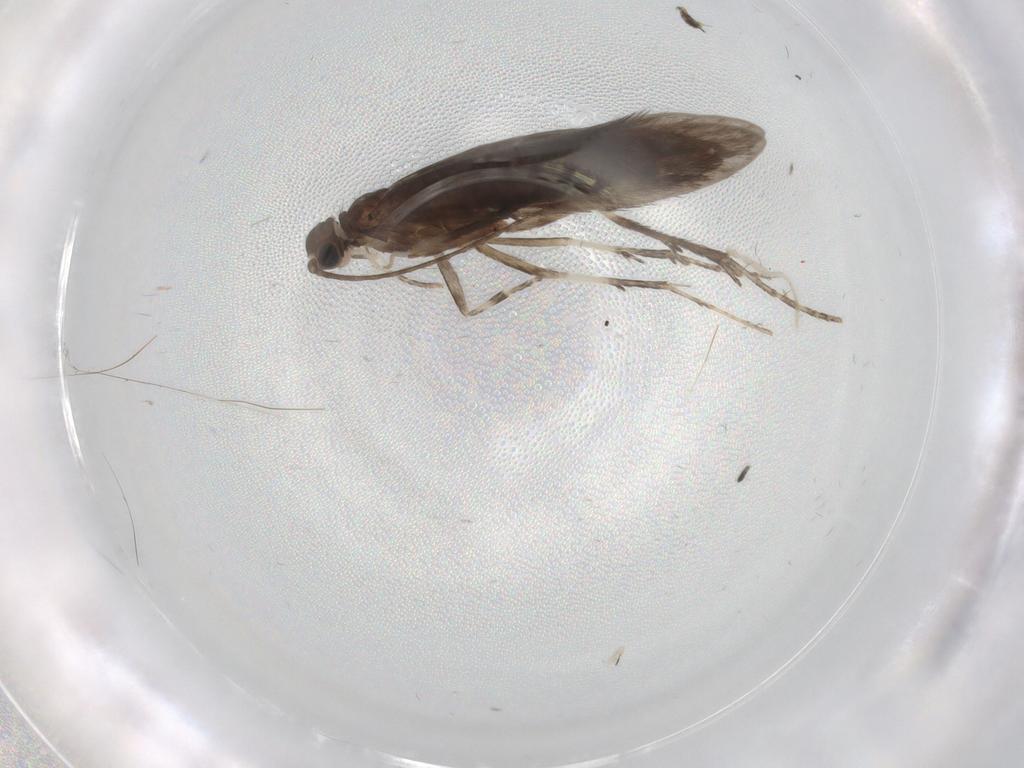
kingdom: Animalia
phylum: Arthropoda
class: Insecta
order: Trichoptera
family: Xiphocentronidae
